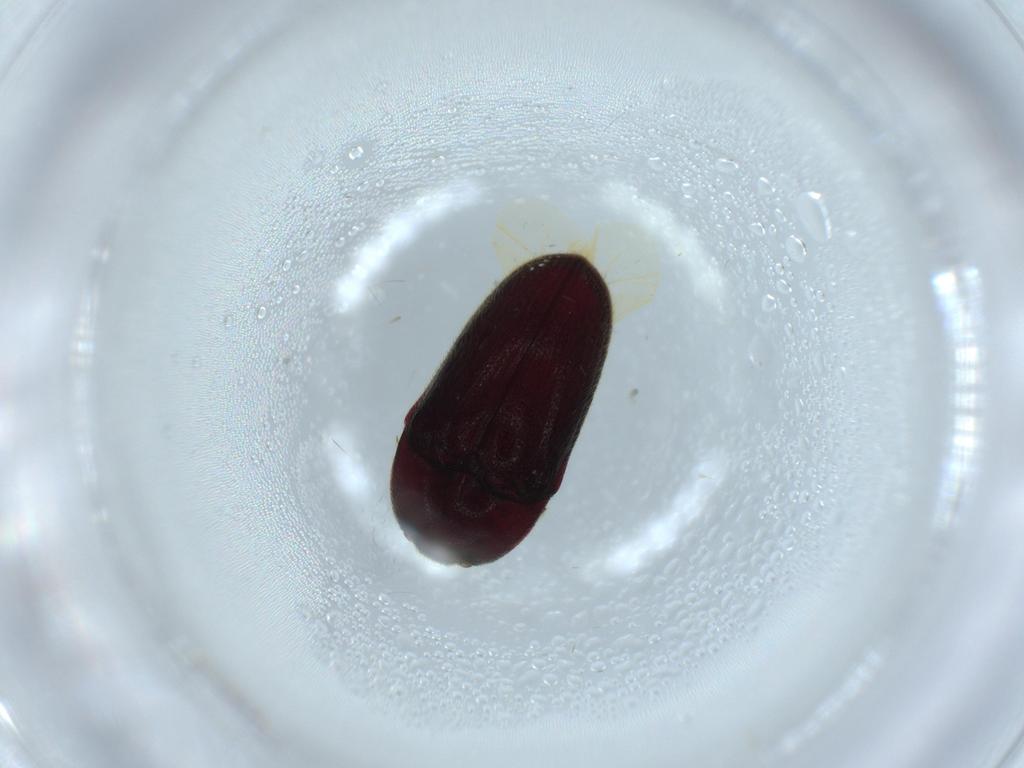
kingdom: Animalia
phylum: Arthropoda
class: Insecta
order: Coleoptera
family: Throscidae
